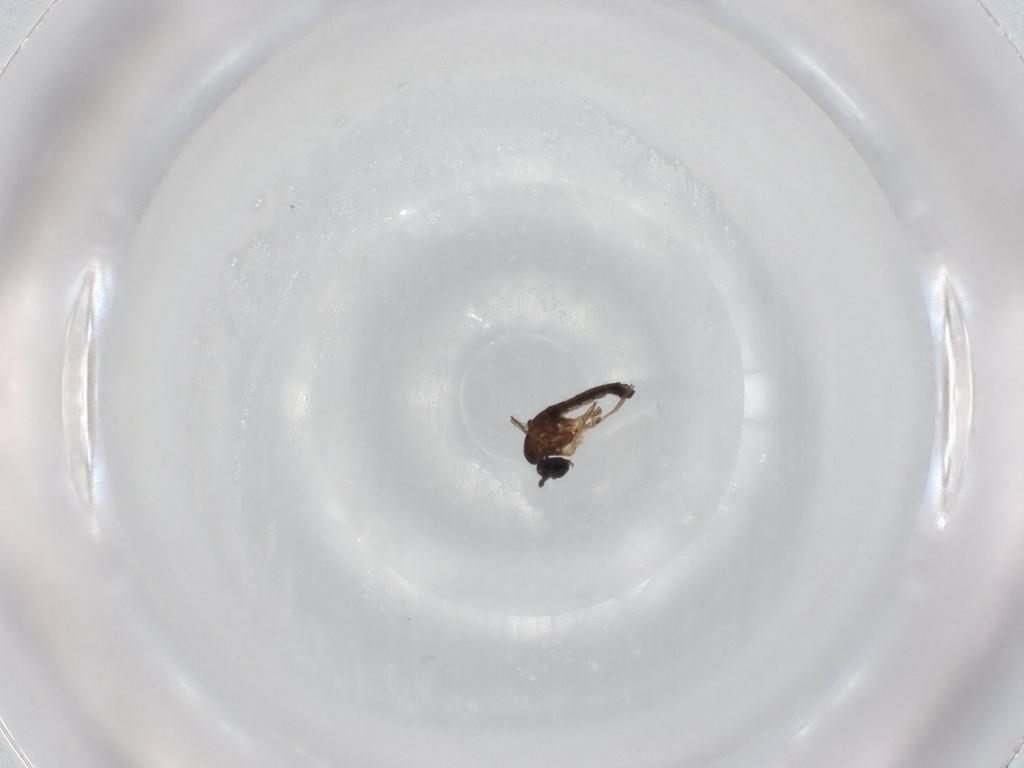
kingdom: Animalia
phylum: Arthropoda
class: Insecta
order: Diptera
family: Sciaridae
